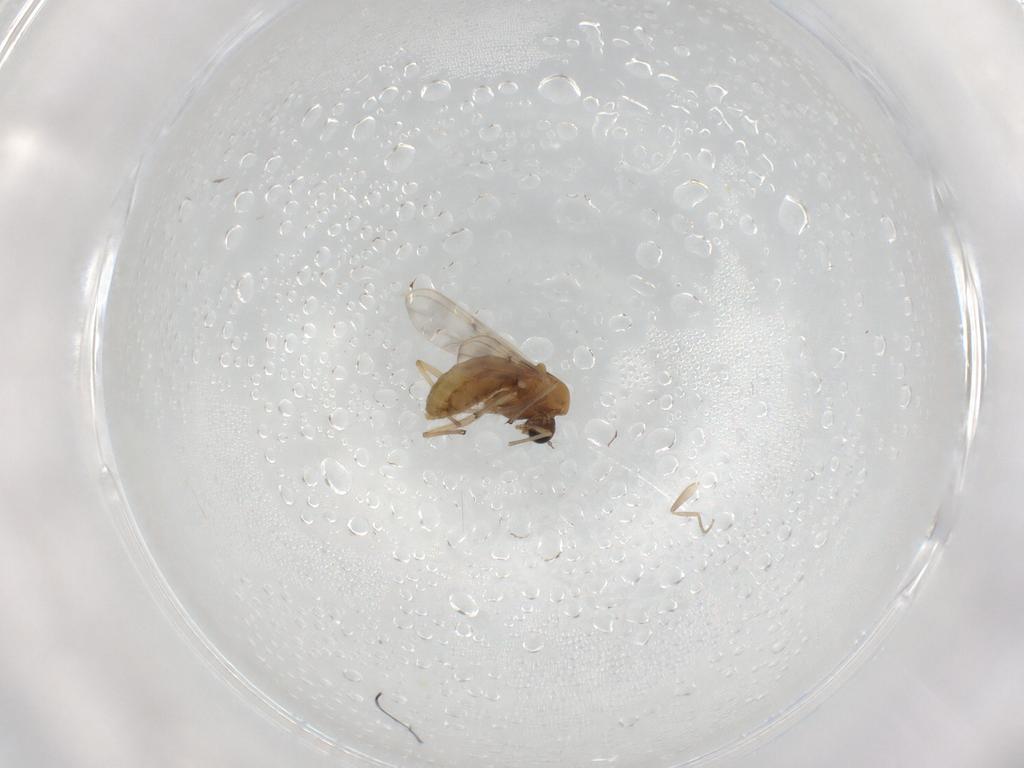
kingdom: Animalia
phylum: Arthropoda
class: Insecta
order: Diptera
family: Chironomidae
